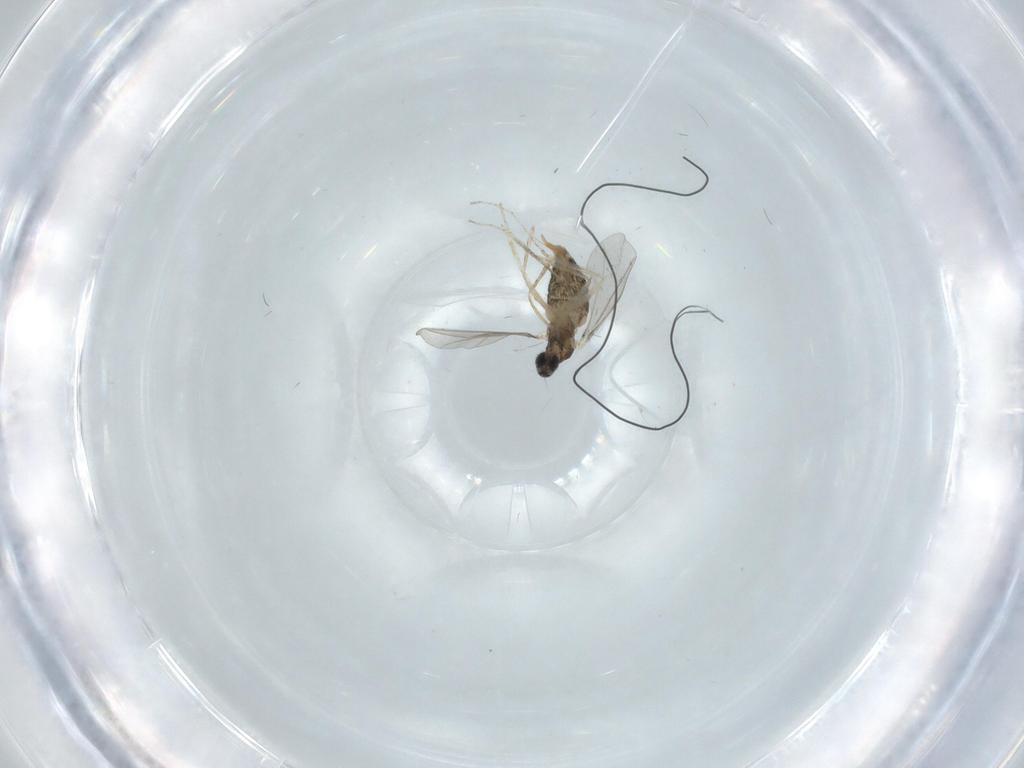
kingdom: Animalia
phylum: Arthropoda
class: Insecta
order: Diptera
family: Cecidomyiidae
